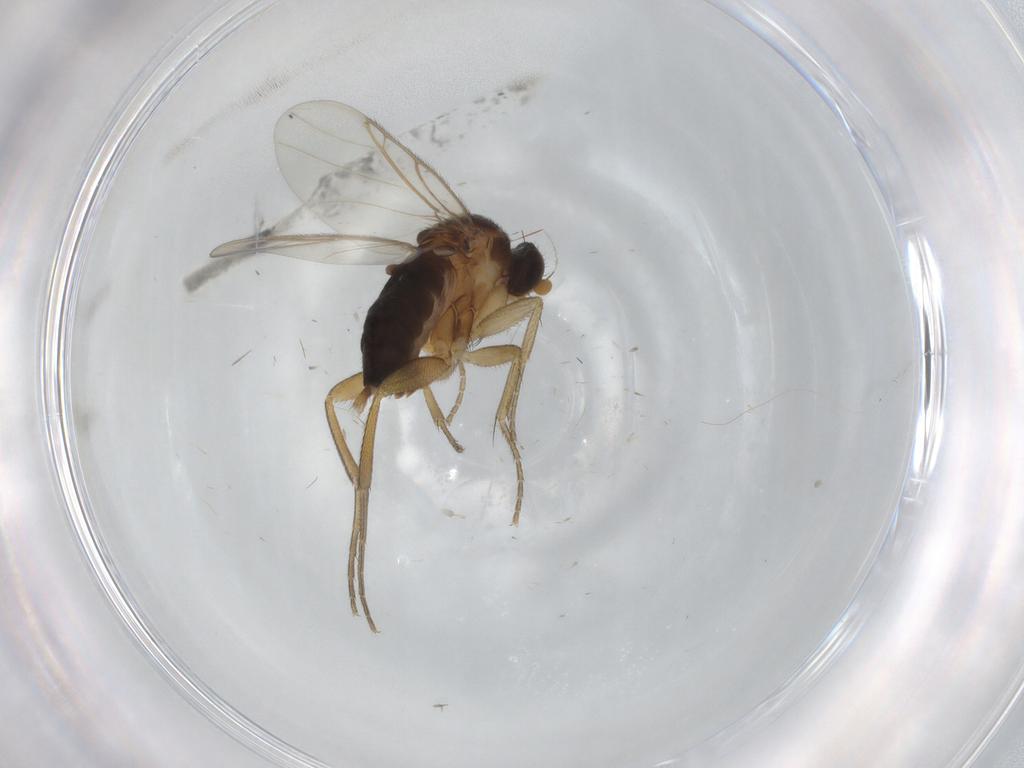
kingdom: Animalia
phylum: Arthropoda
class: Insecta
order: Diptera
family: Phoridae
